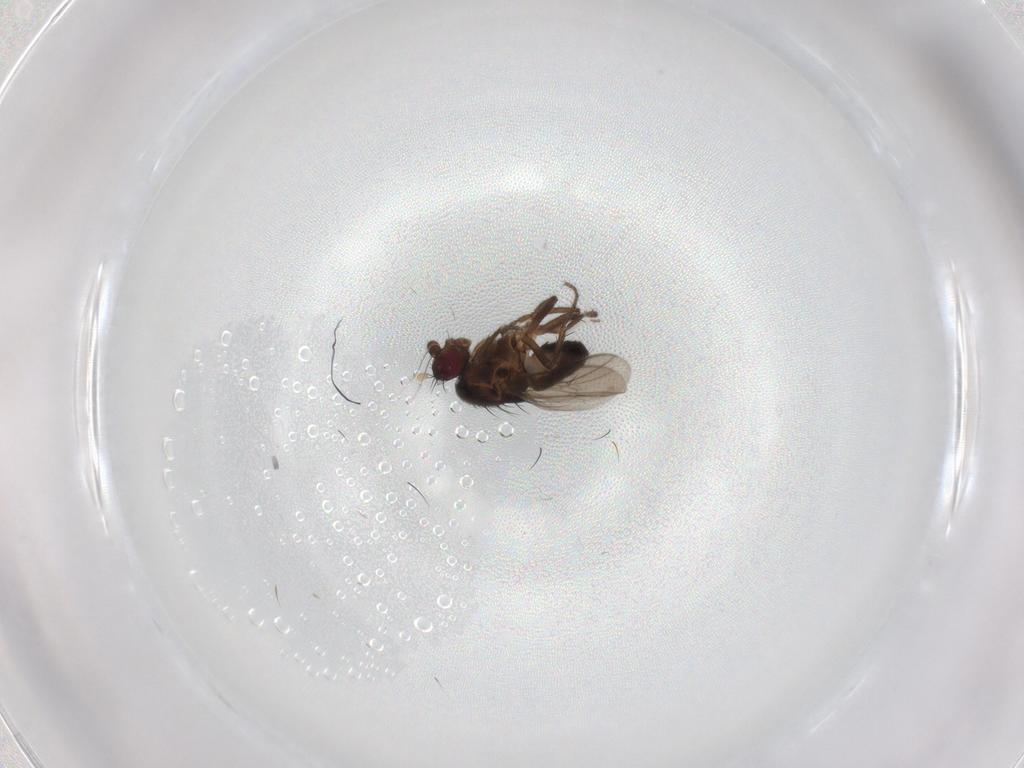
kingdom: Animalia
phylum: Arthropoda
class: Insecta
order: Diptera
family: Sphaeroceridae
